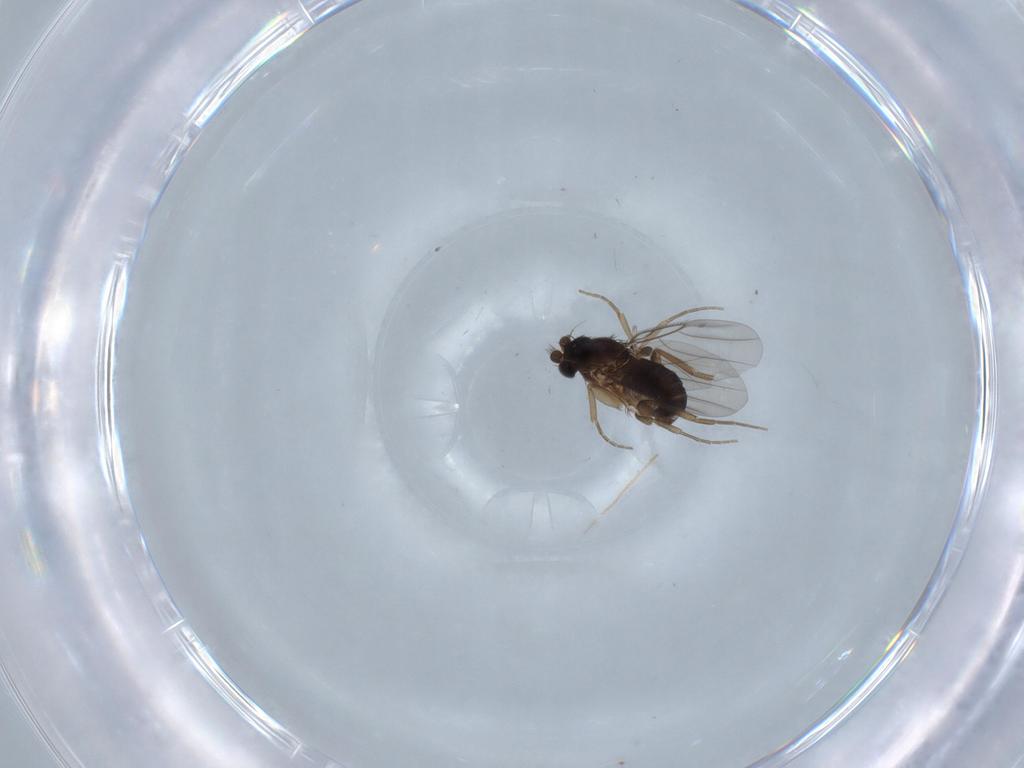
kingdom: Animalia
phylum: Arthropoda
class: Insecta
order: Diptera
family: Phoridae
